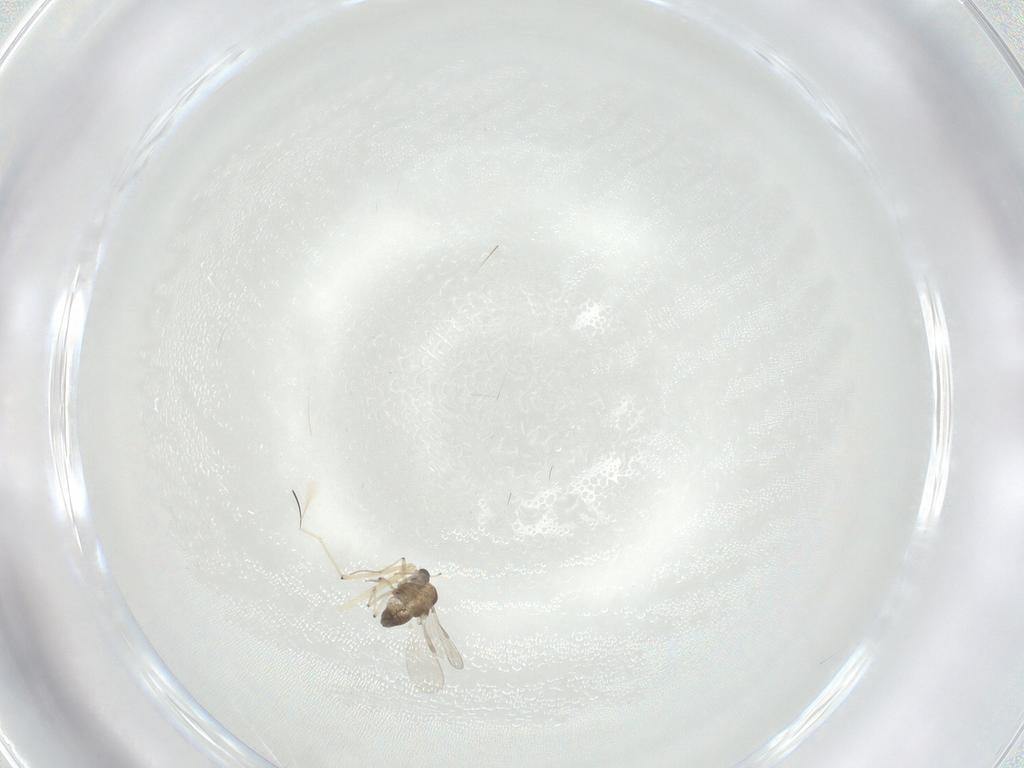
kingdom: Animalia
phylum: Arthropoda
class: Insecta
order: Diptera
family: Chironomidae
